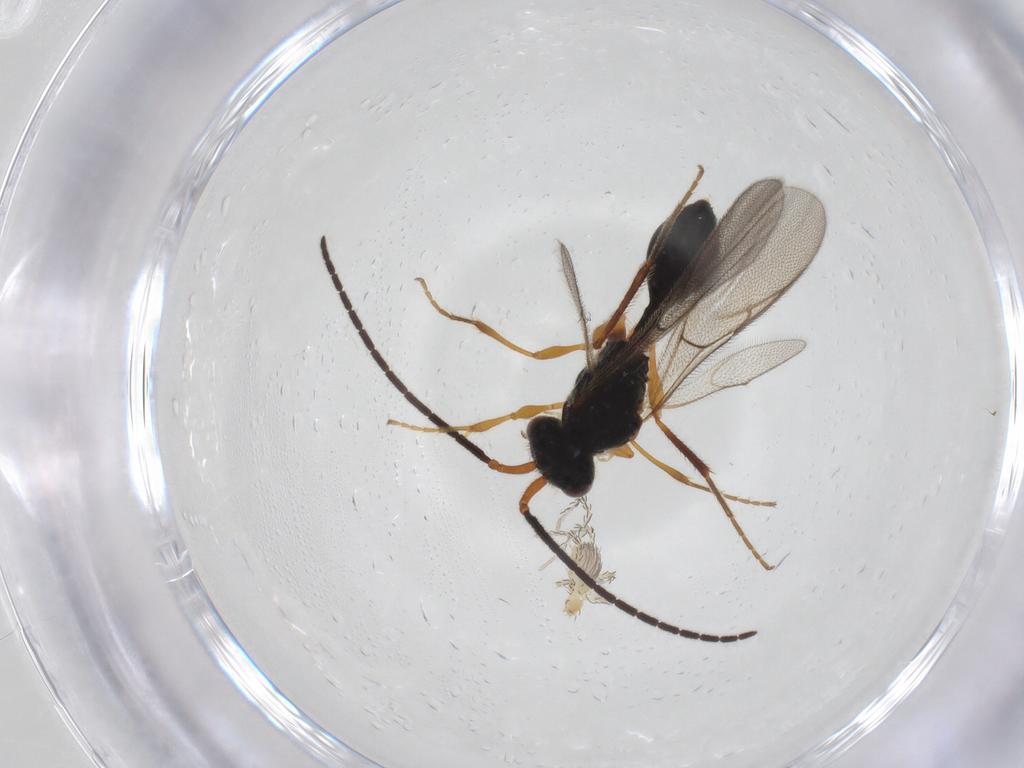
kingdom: Animalia
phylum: Arthropoda
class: Insecta
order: Hymenoptera
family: Diapriidae
